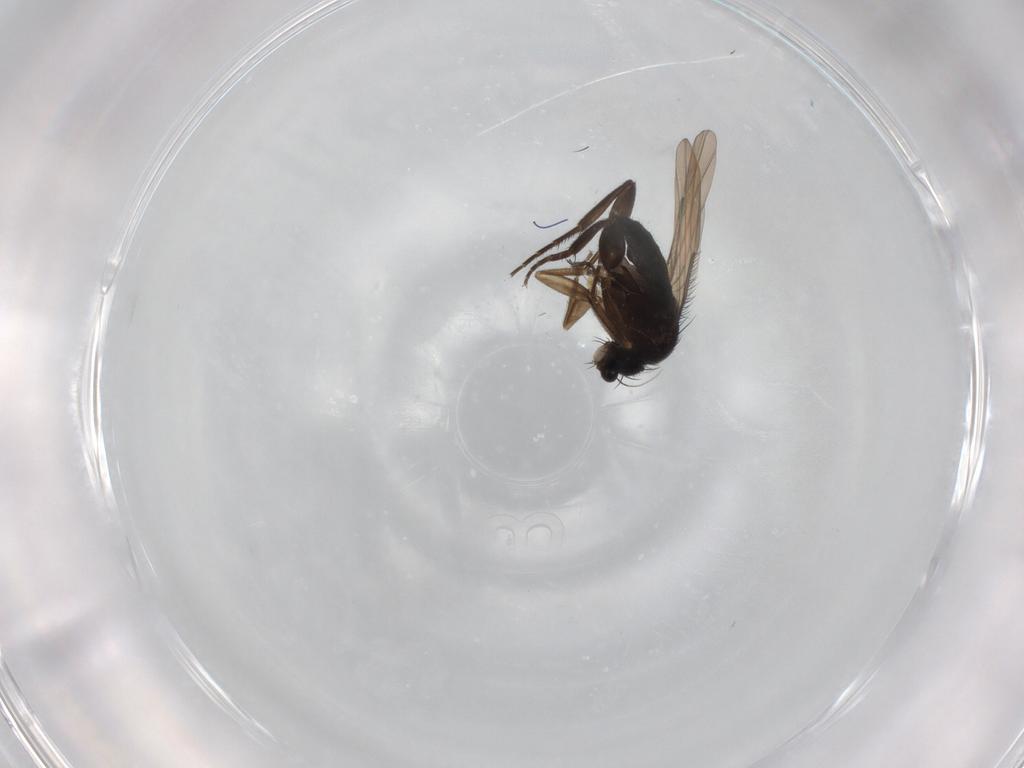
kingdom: Animalia
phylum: Arthropoda
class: Insecta
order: Diptera
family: Phoridae
